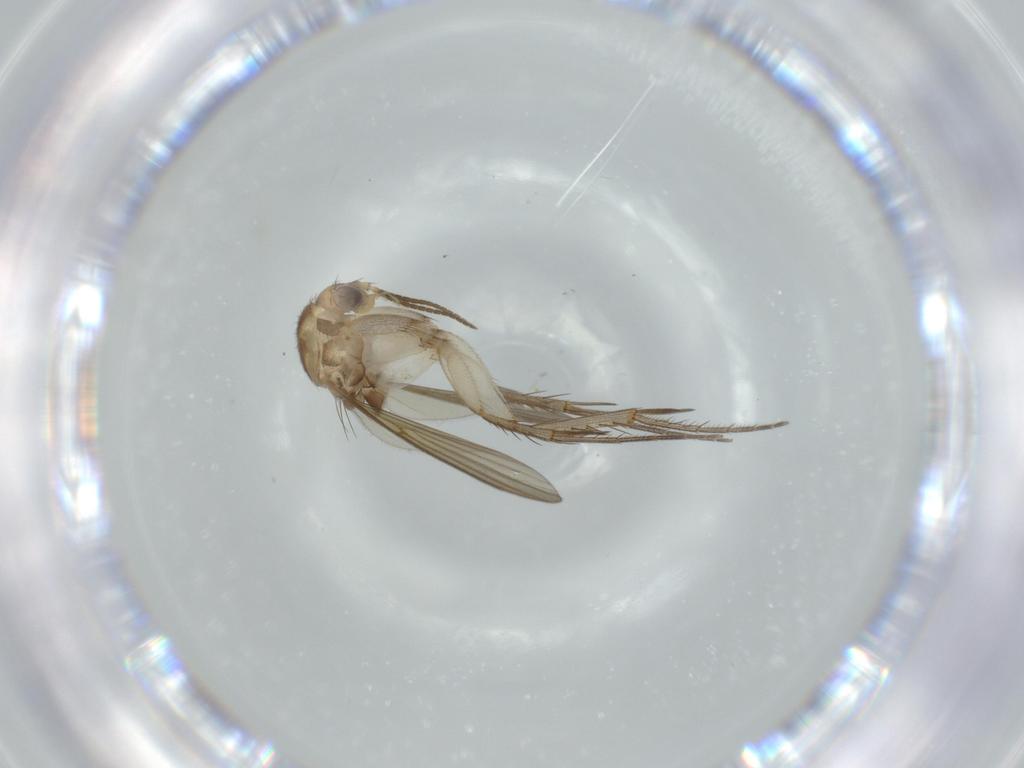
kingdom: Animalia
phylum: Arthropoda
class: Insecta
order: Diptera
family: Mycetophilidae
